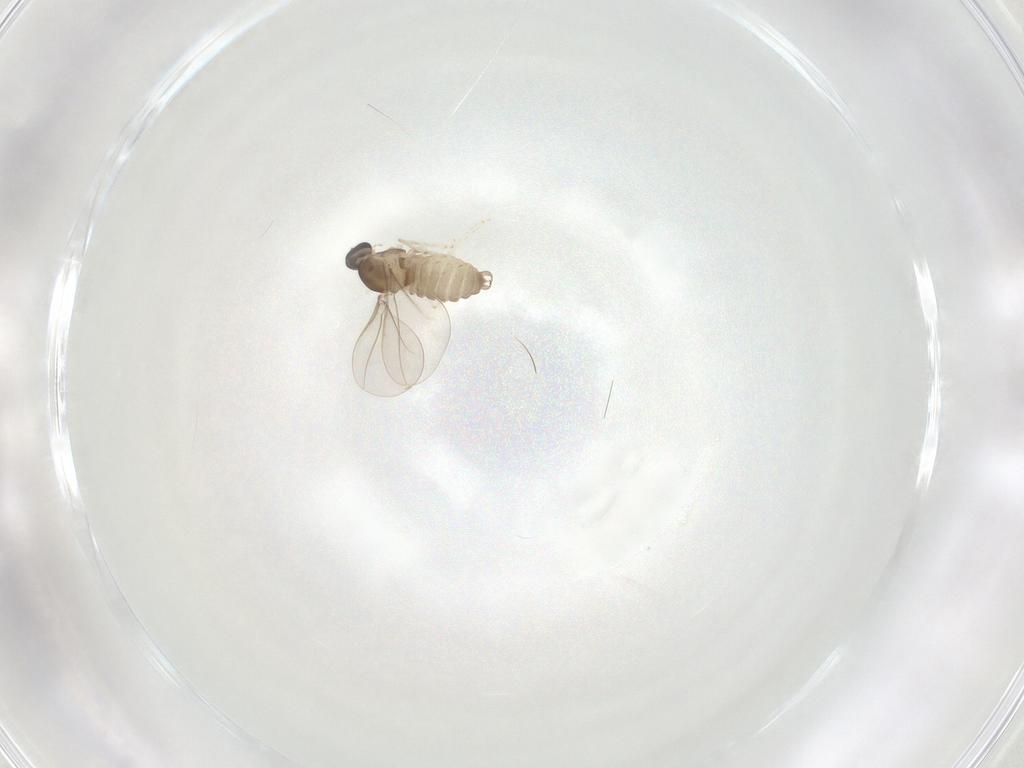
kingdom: Animalia
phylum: Arthropoda
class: Insecta
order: Diptera
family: Cecidomyiidae
